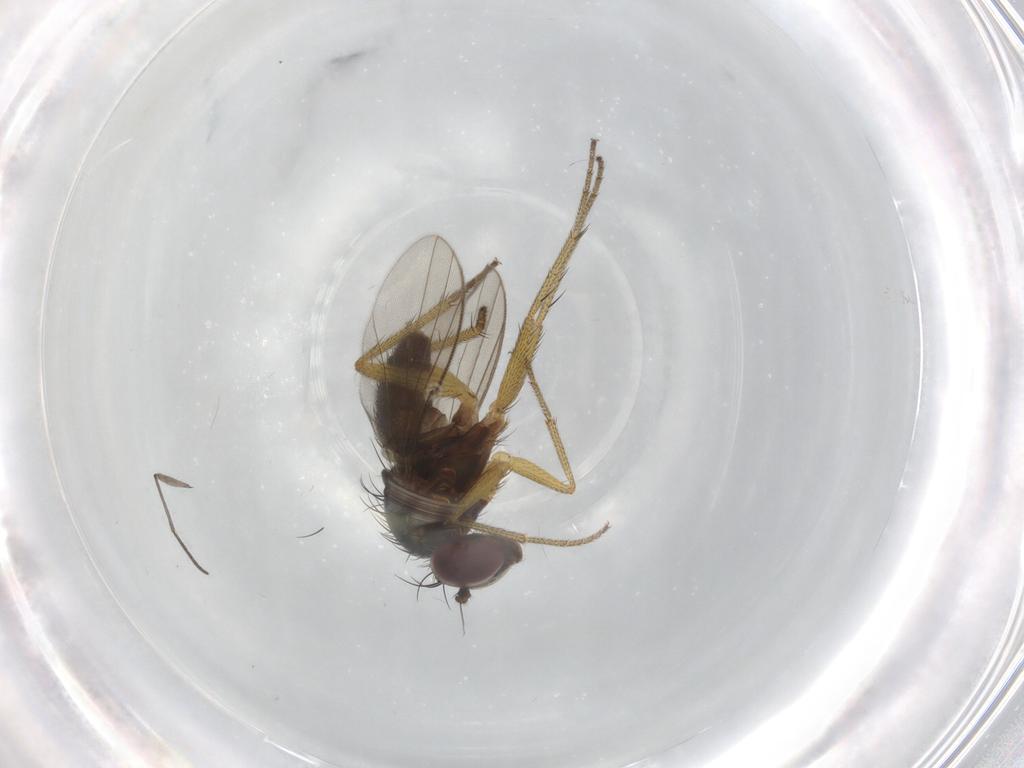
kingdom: Animalia
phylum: Arthropoda
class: Insecta
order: Diptera
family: Dolichopodidae
